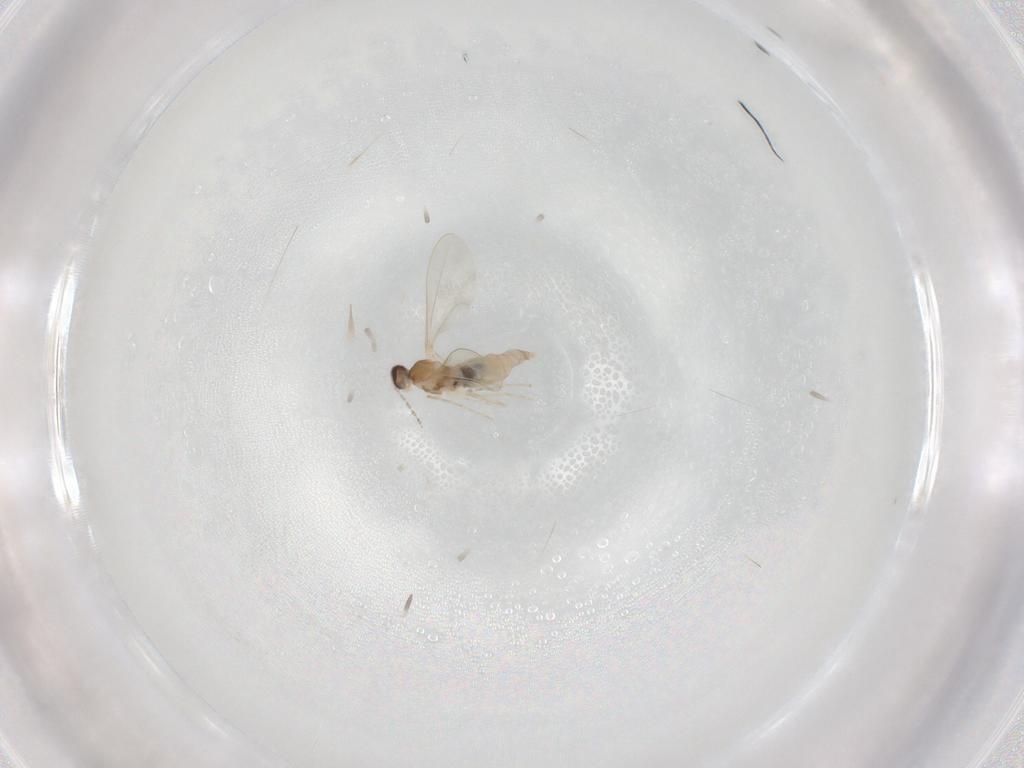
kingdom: Animalia
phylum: Arthropoda
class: Insecta
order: Diptera
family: Cecidomyiidae
